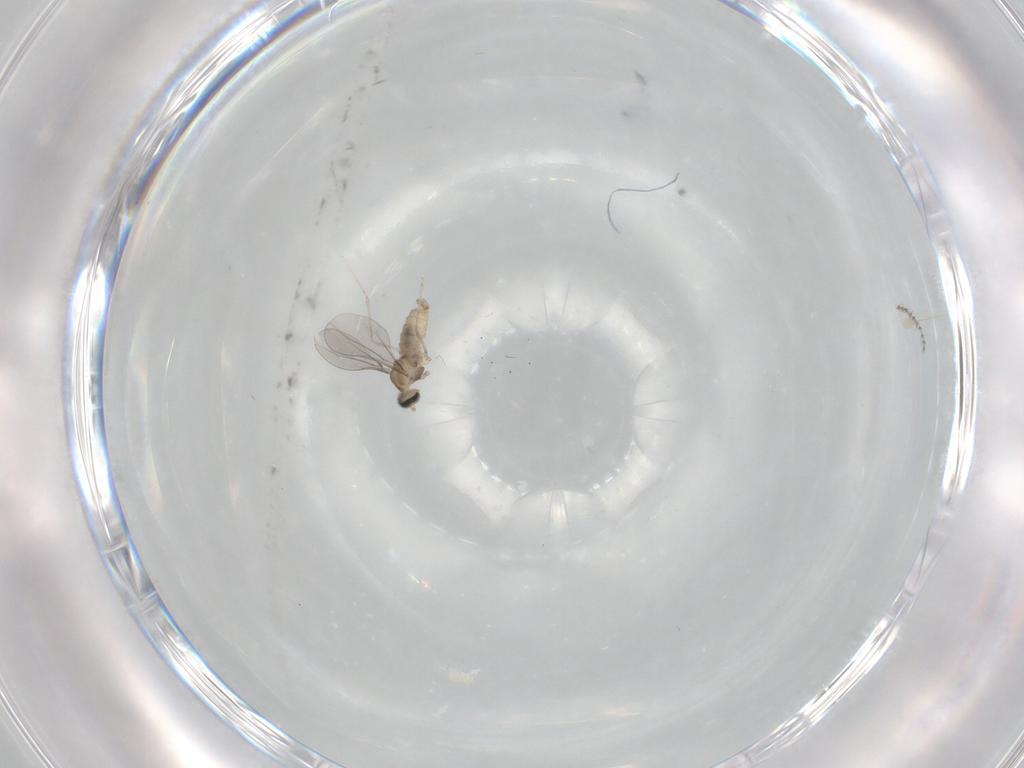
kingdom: Animalia
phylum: Arthropoda
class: Insecta
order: Diptera
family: Cecidomyiidae
